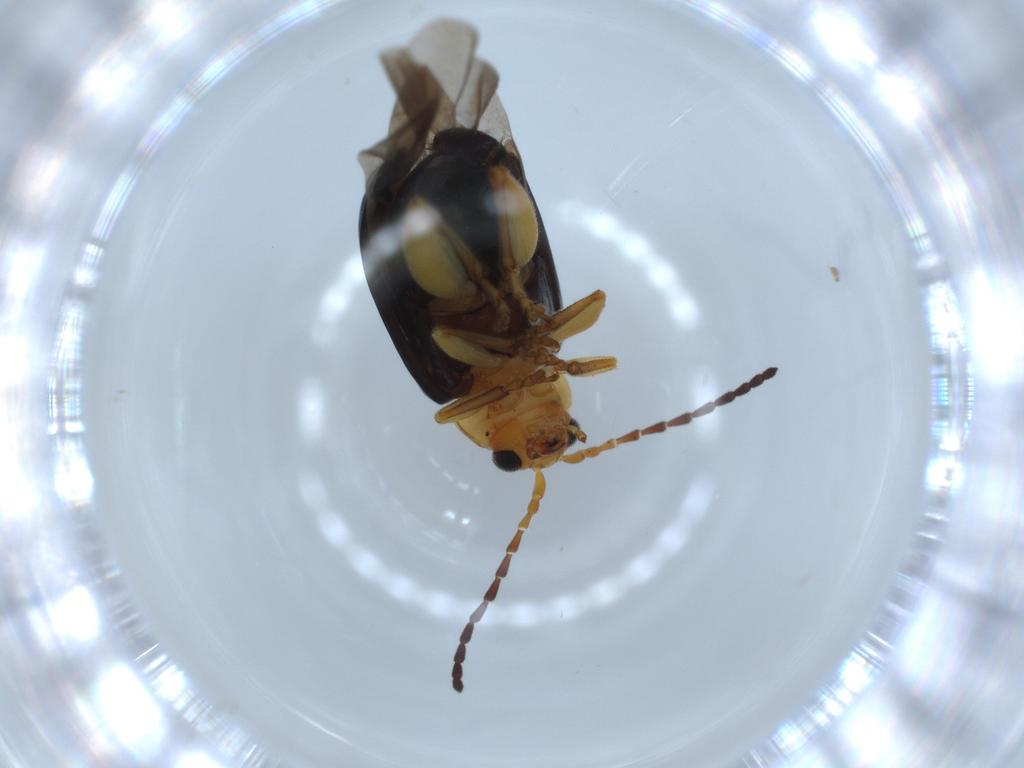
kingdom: Animalia
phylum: Arthropoda
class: Insecta
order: Coleoptera
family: Chrysomelidae
